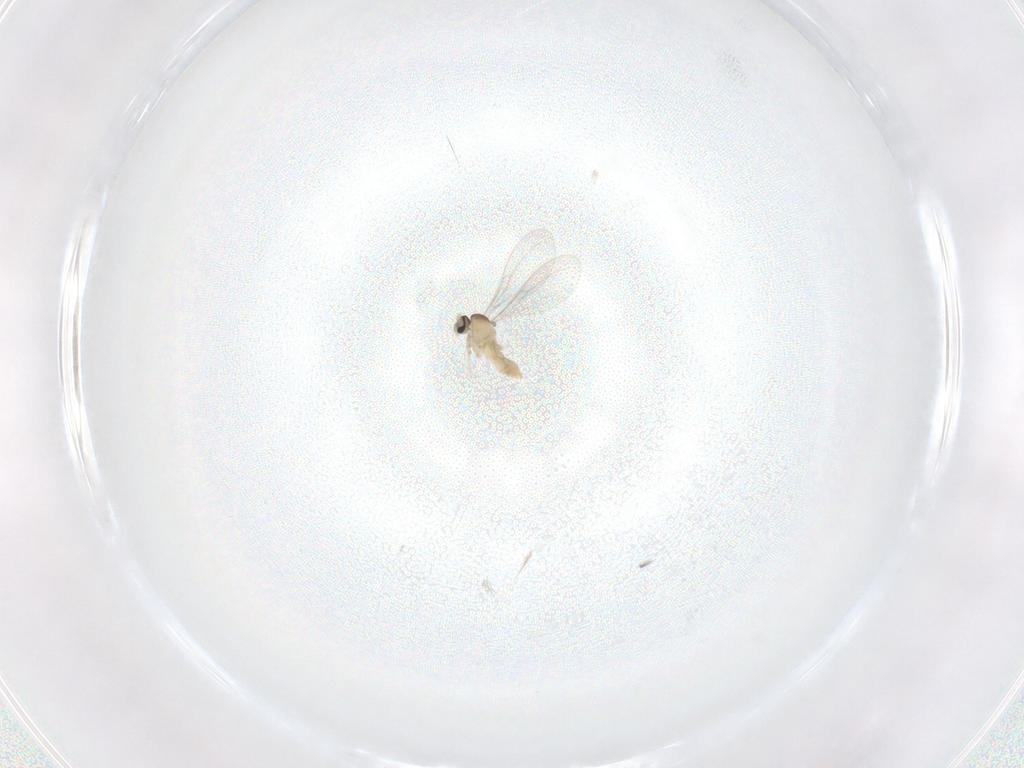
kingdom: Animalia
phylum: Arthropoda
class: Insecta
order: Diptera
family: Cecidomyiidae
